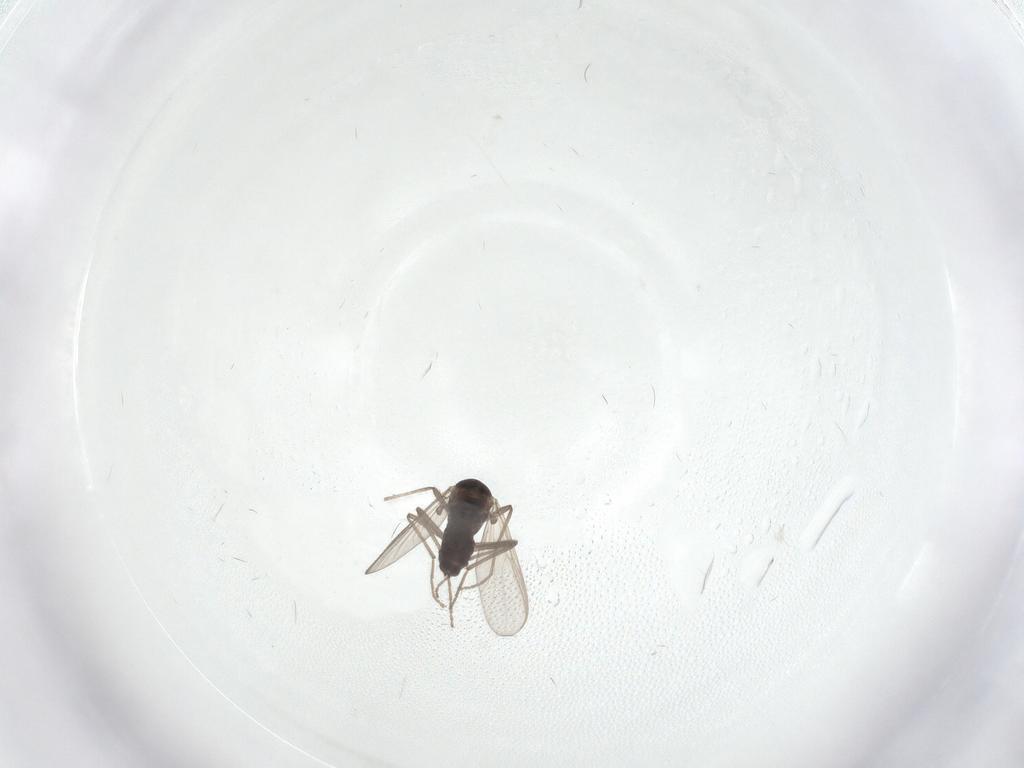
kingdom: Animalia
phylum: Arthropoda
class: Insecta
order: Diptera
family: Mycetophilidae
